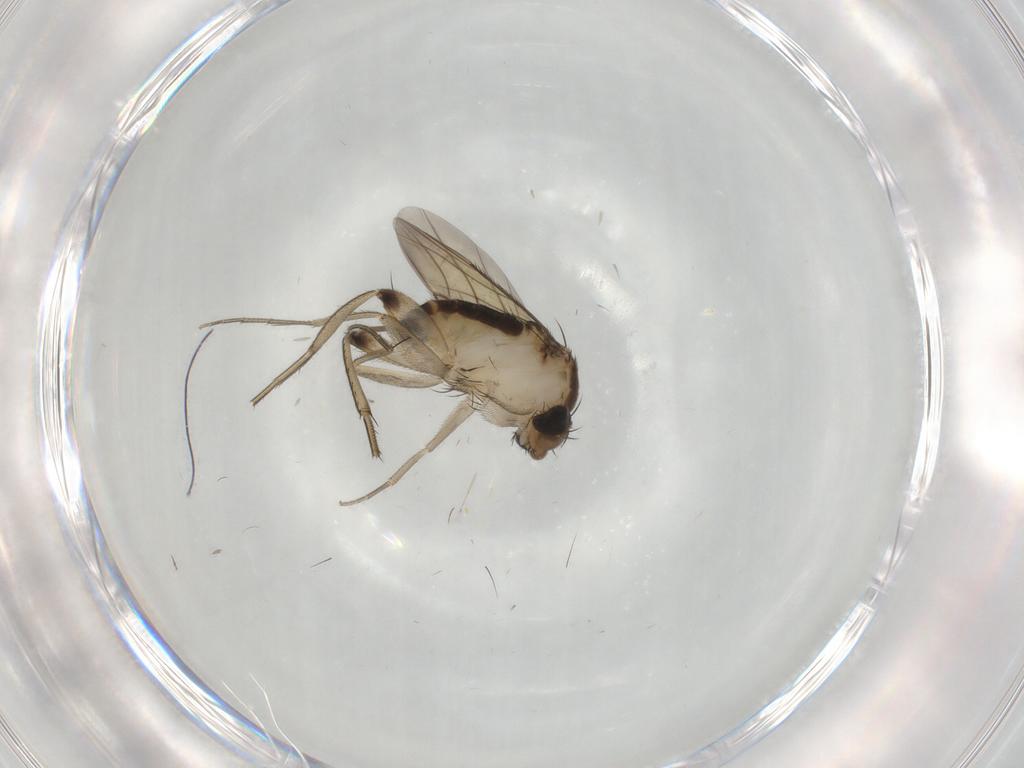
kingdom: Animalia
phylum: Arthropoda
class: Insecta
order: Diptera
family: Phoridae
